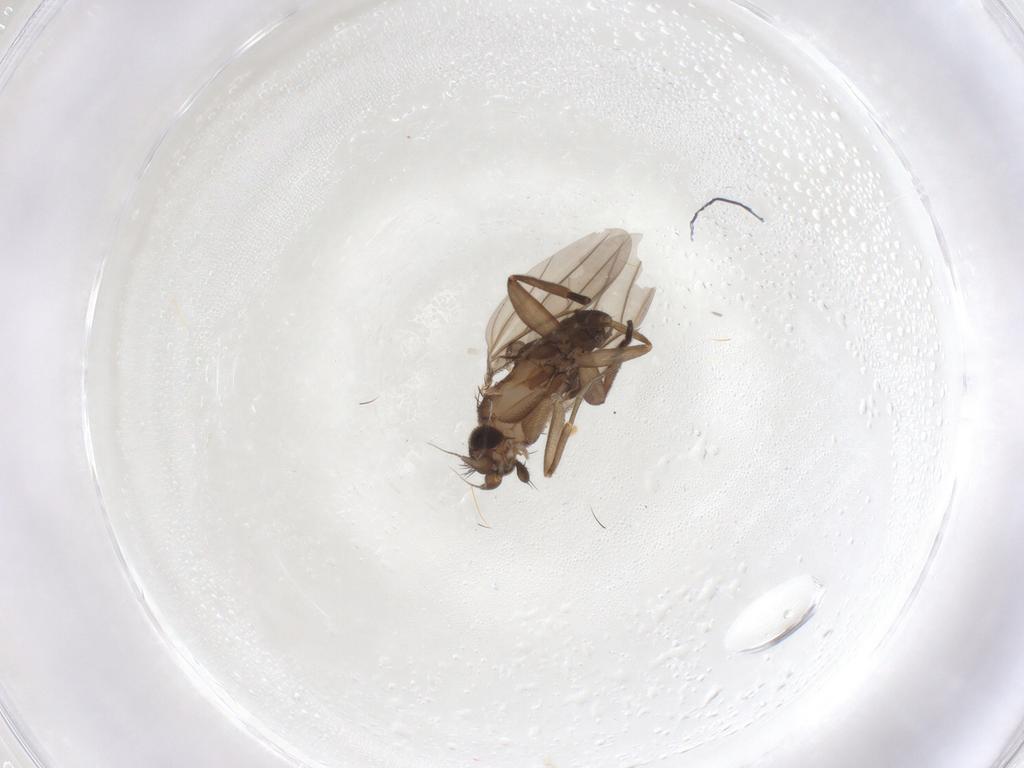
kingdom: Animalia
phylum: Arthropoda
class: Insecta
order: Diptera
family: Phoridae
